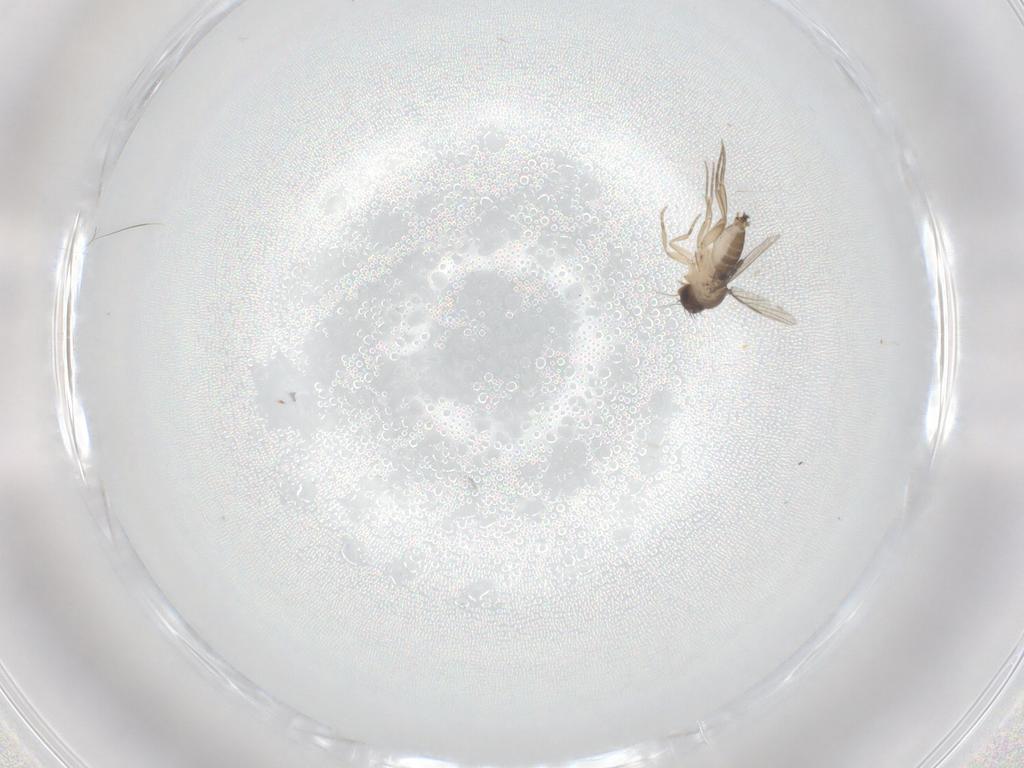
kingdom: Animalia
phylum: Arthropoda
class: Insecta
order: Diptera
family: Phoridae
